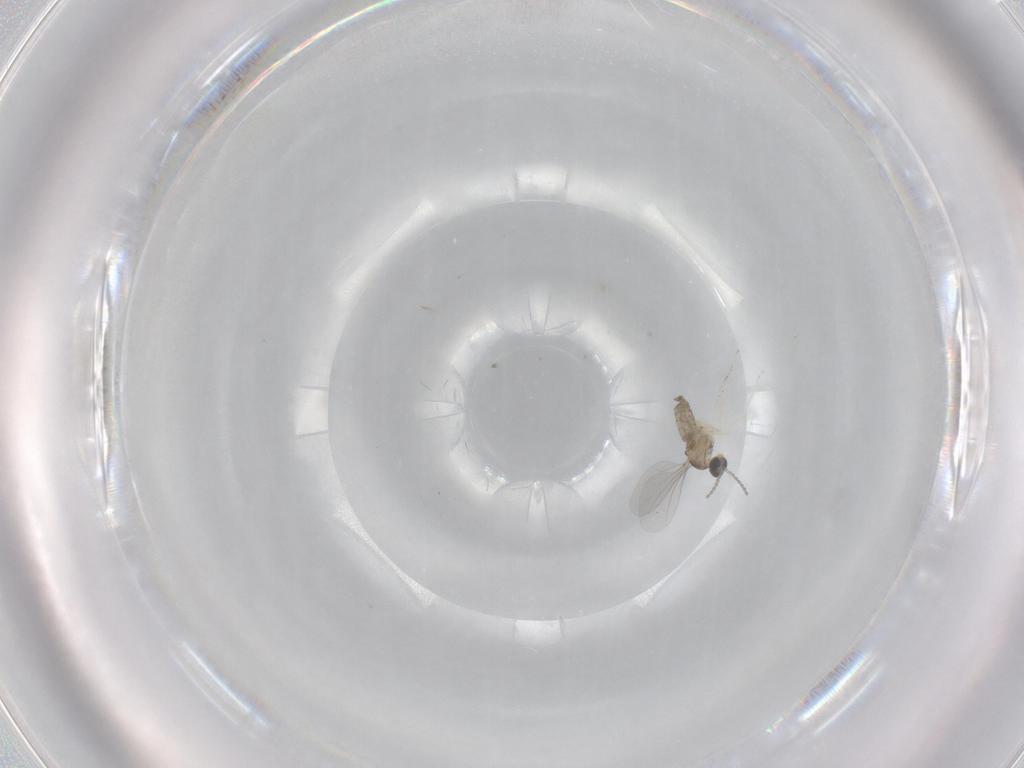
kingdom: Animalia
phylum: Arthropoda
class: Insecta
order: Diptera
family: Cecidomyiidae
